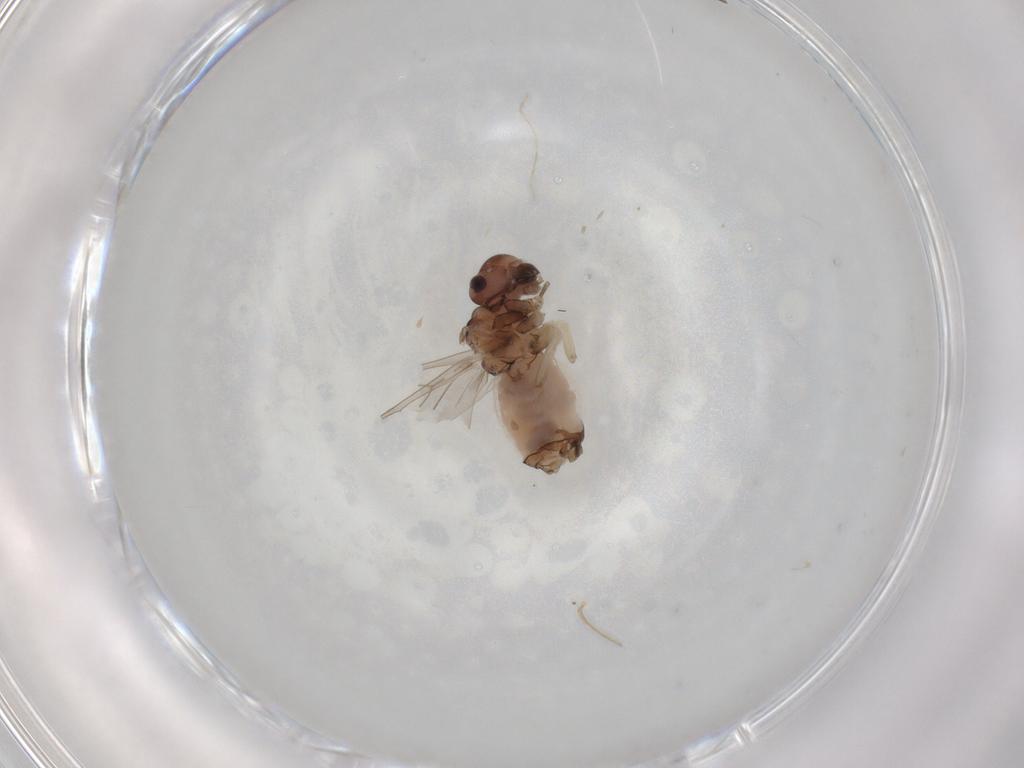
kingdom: Animalia
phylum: Arthropoda
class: Insecta
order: Psocodea
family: Peripsocidae
